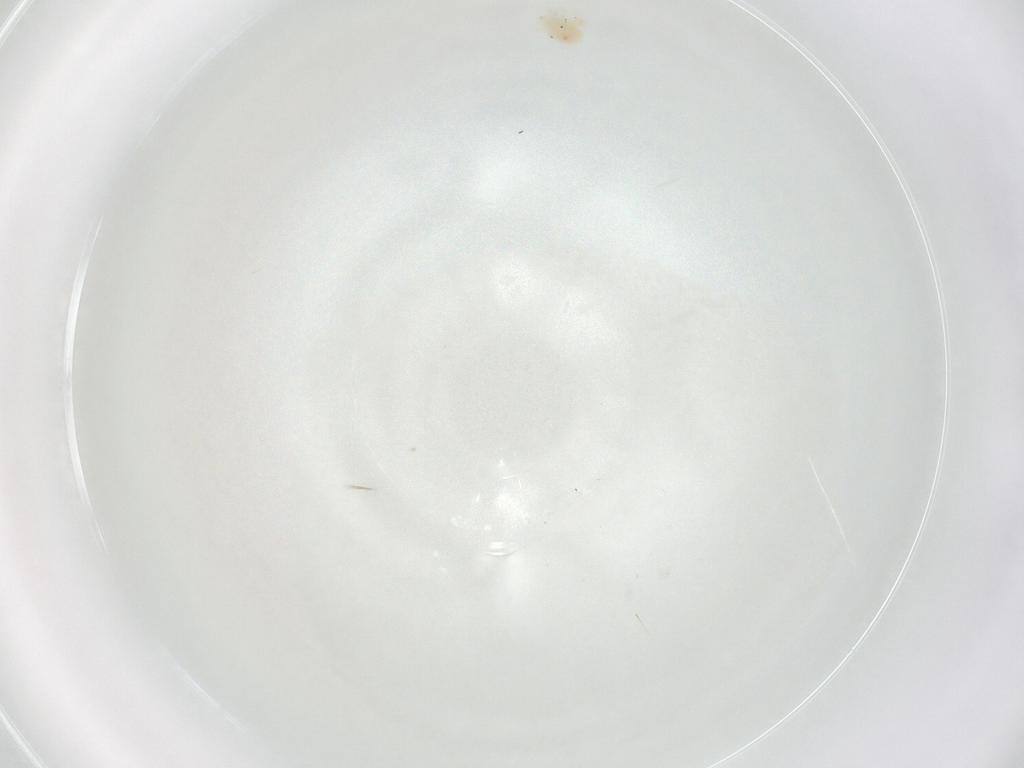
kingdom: Animalia
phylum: Arthropoda
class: Arachnida
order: Trombidiformes
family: Anystidae
